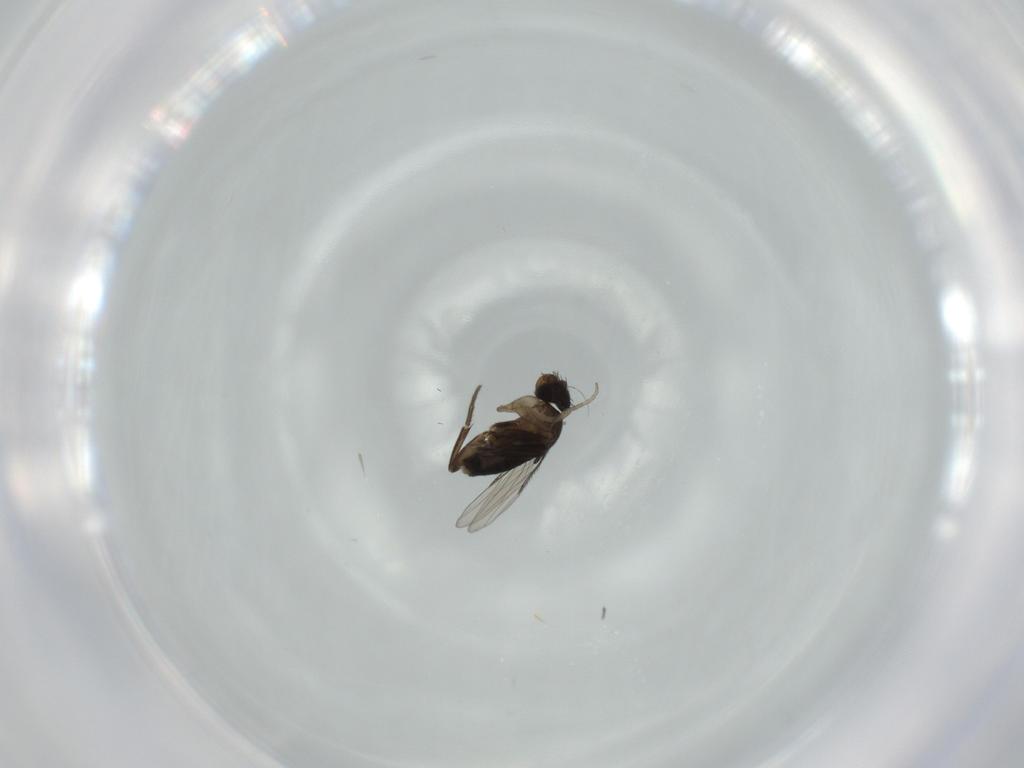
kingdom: Animalia
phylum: Arthropoda
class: Insecta
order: Diptera
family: Phoridae
